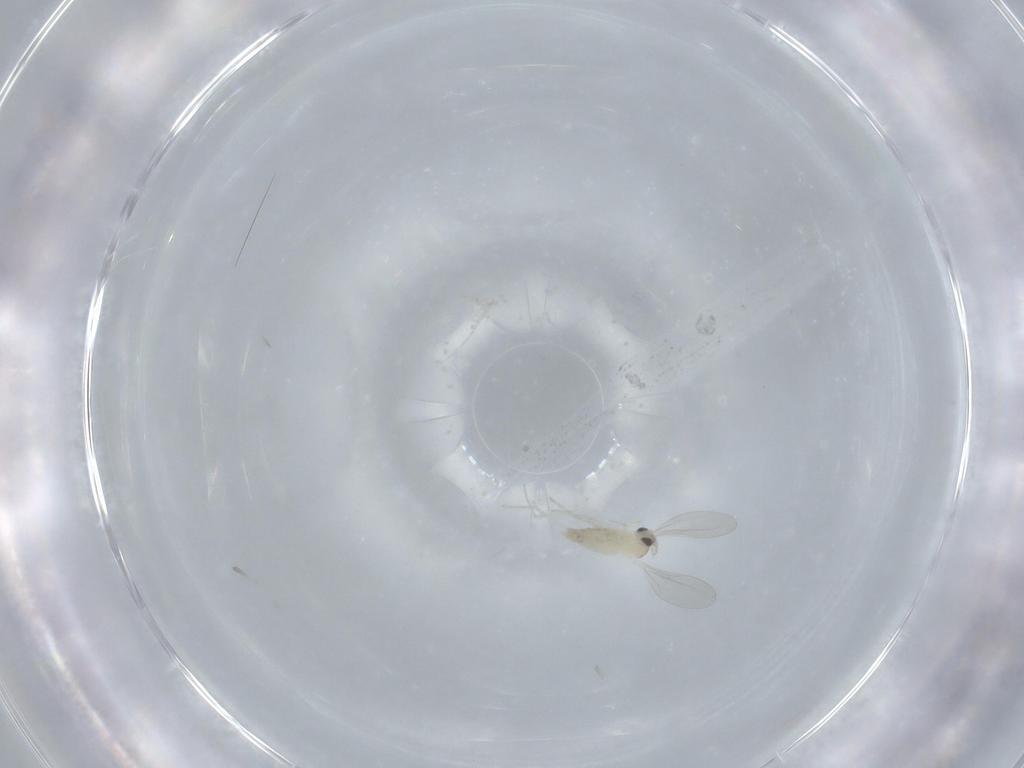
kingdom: Animalia
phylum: Arthropoda
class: Insecta
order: Diptera
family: Cecidomyiidae
